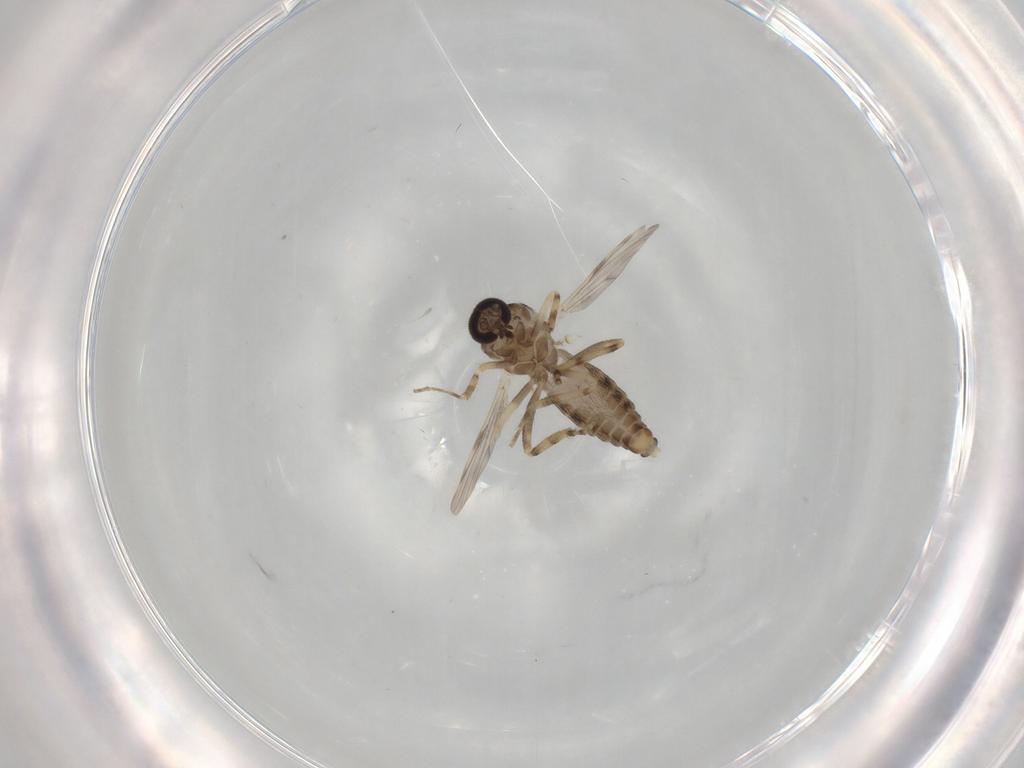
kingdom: Animalia
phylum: Arthropoda
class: Insecta
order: Diptera
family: Ceratopogonidae
